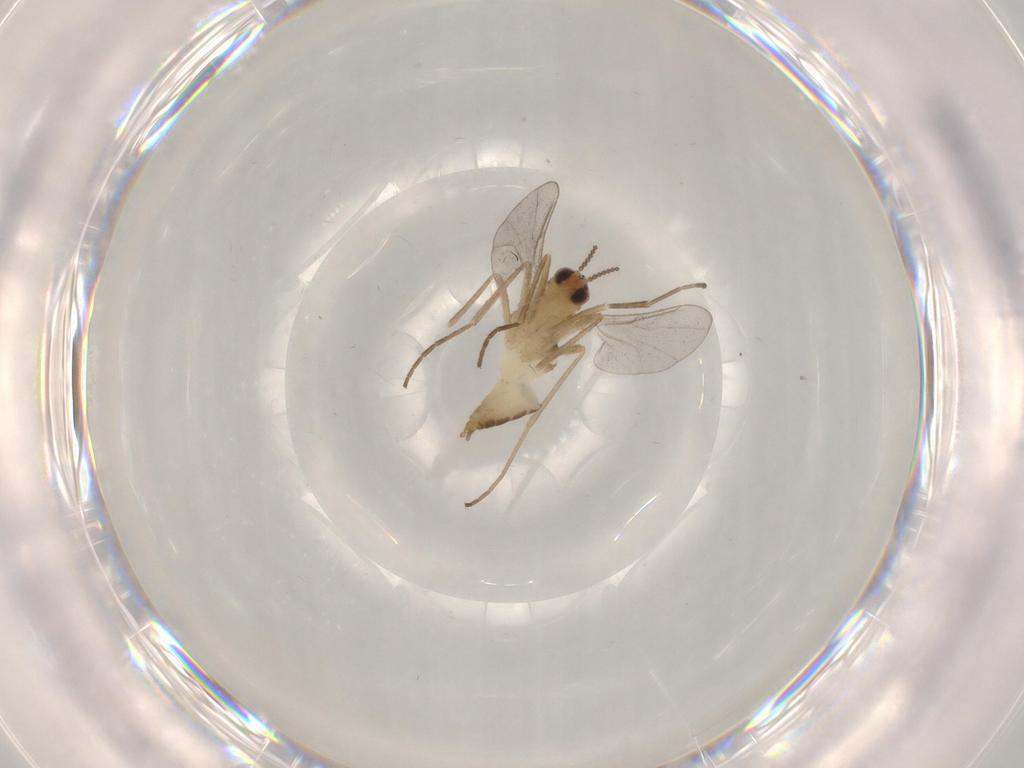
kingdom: Animalia
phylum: Arthropoda
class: Insecta
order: Diptera
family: Cecidomyiidae
